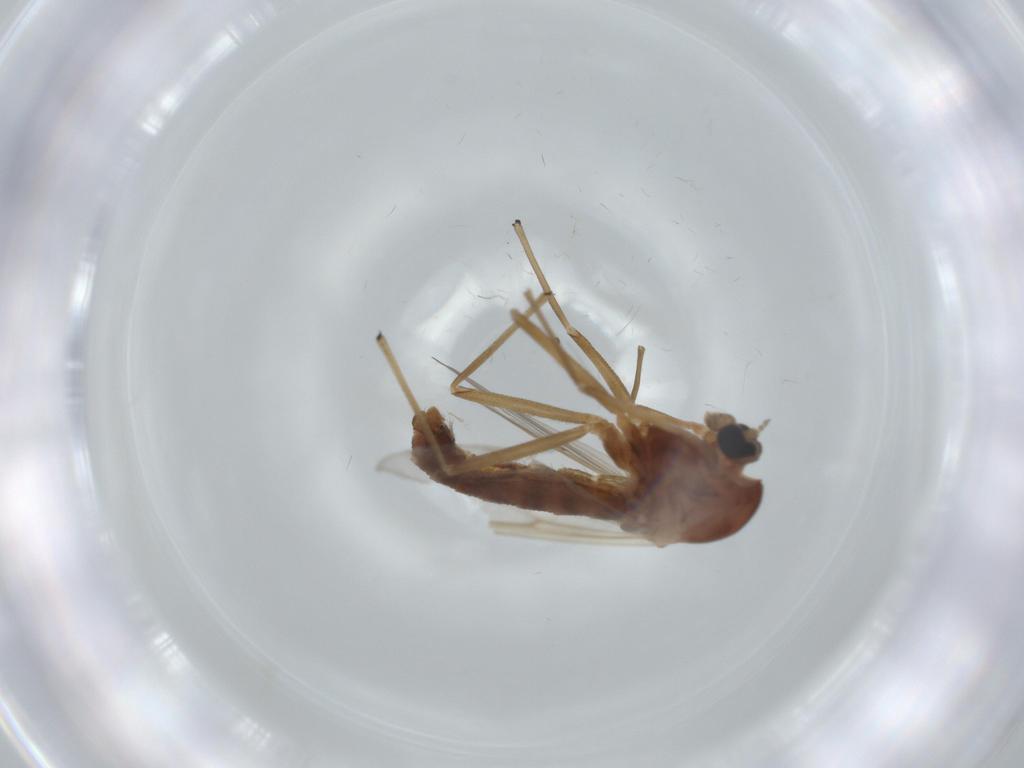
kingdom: Animalia
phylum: Arthropoda
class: Insecta
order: Diptera
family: Chironomidae
